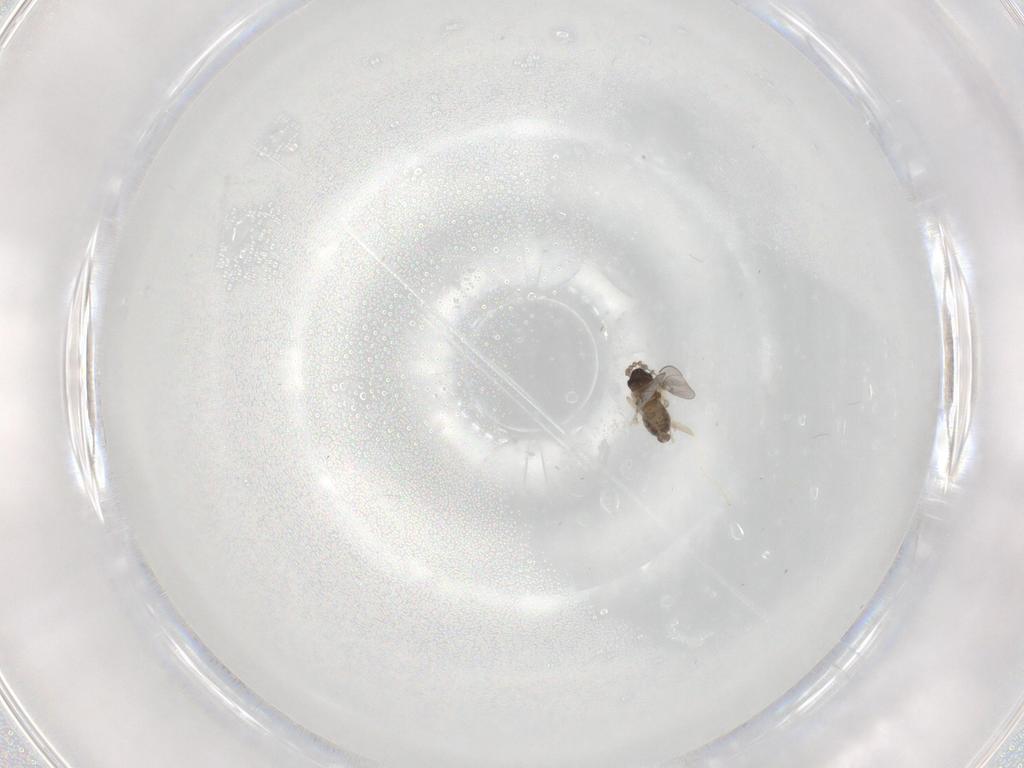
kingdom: Animalia
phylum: Arthropoda
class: Insecta
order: Diptera
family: Cecidomyiidae
